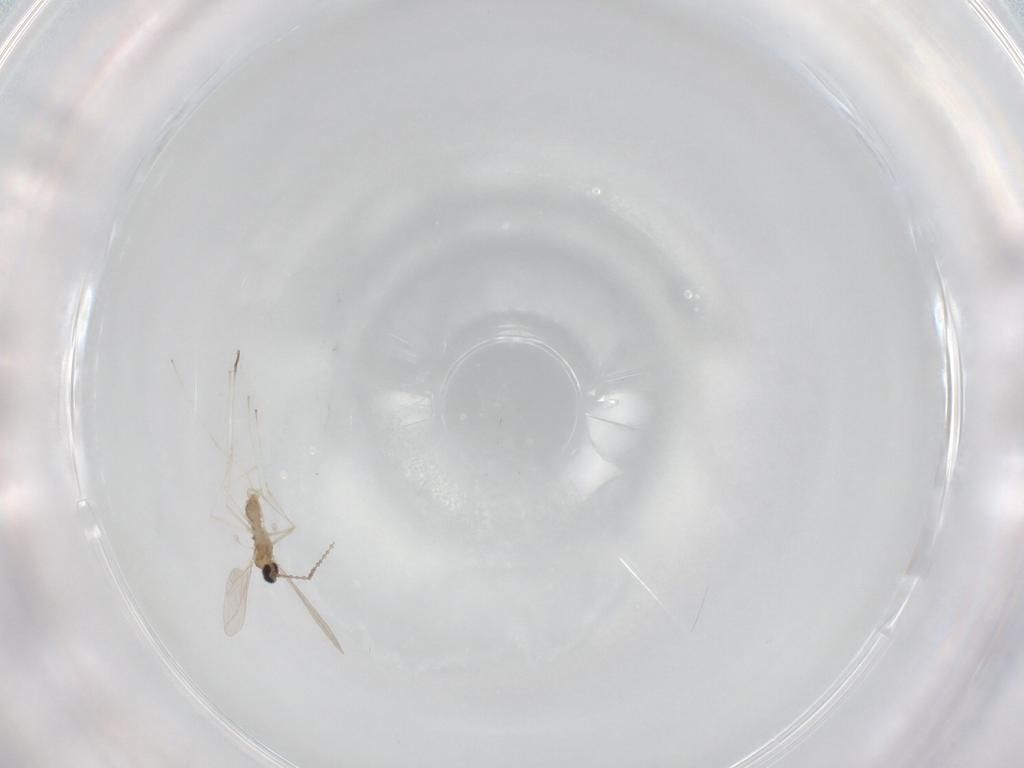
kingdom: Animalia
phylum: Arthropoda
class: Insecta
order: Diptera
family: Cecidomyiidae
